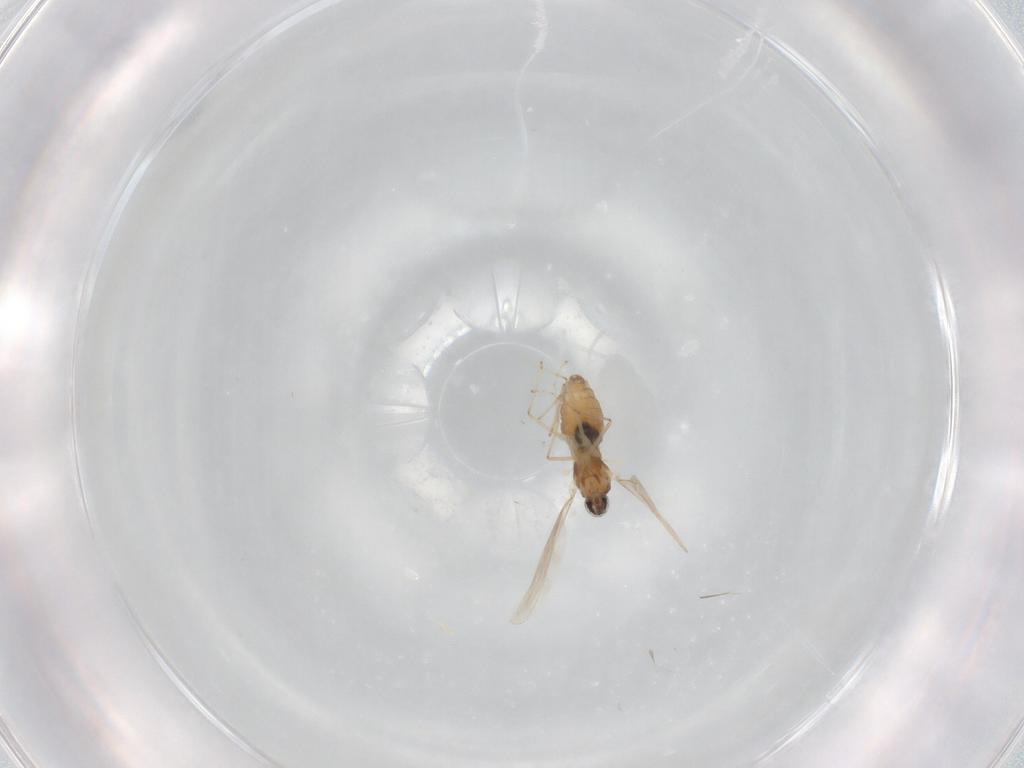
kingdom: Animalia
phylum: Arthropoda
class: Insecta
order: Diptera
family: Cecidomyiidae
